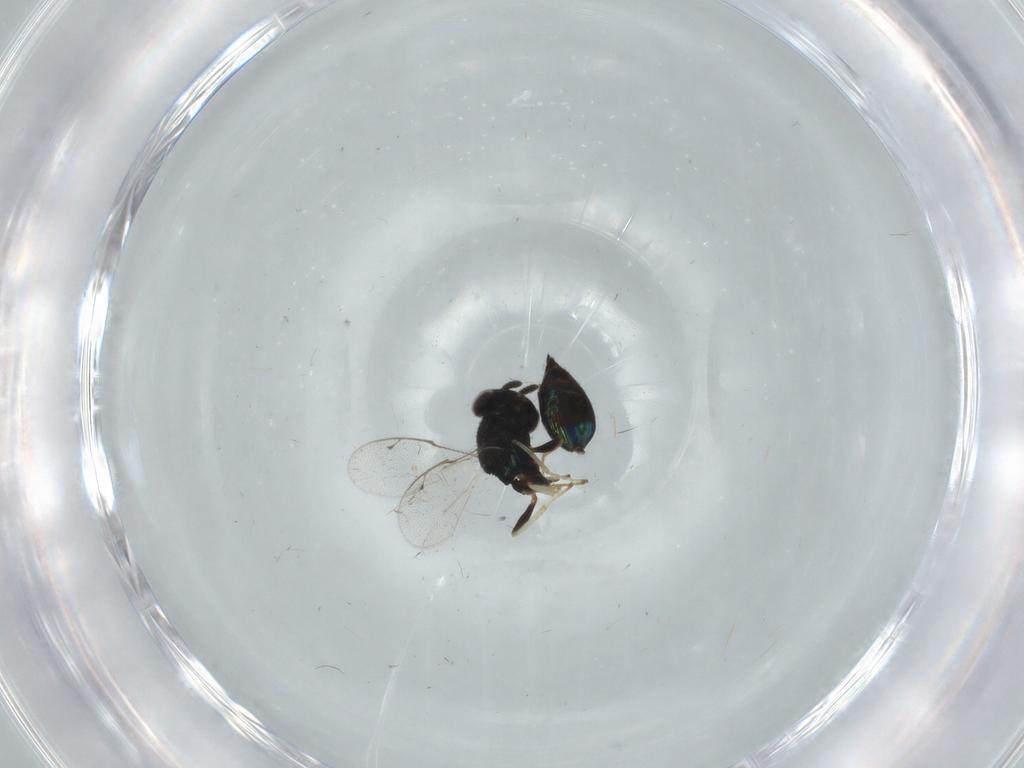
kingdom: Animalia
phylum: Arthropoda
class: Insecta
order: Hymenoptera
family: Pteromalidae
